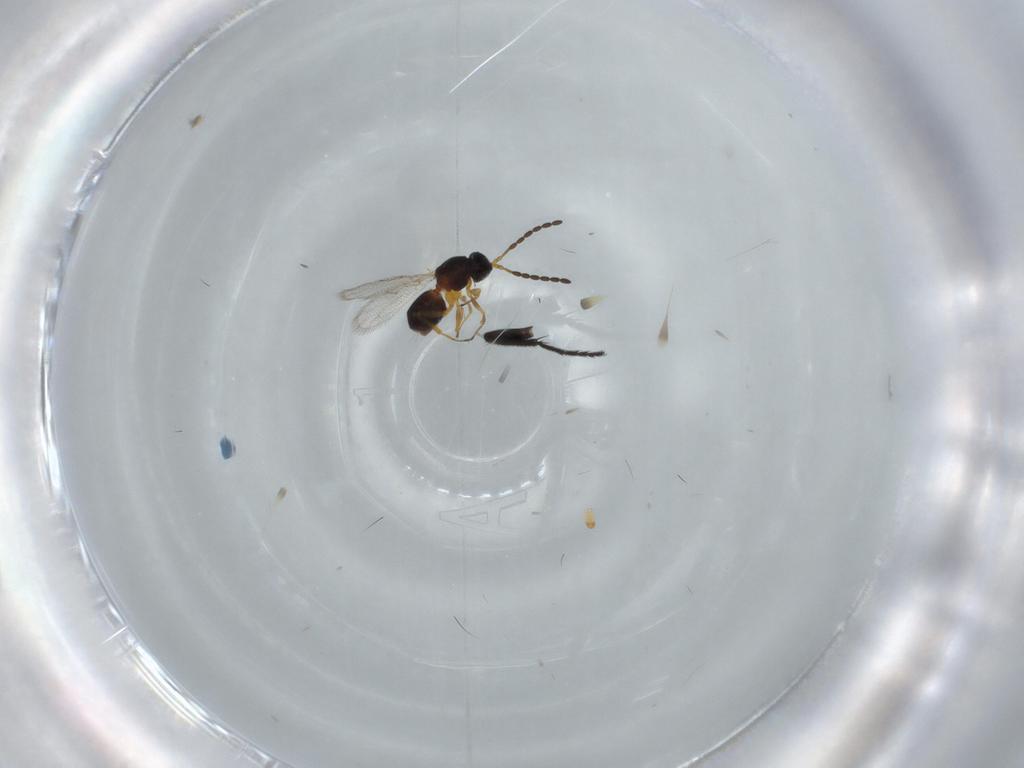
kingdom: Animalia
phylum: Arthropoda
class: Insecta
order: Hymenoptera
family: Figitidae
